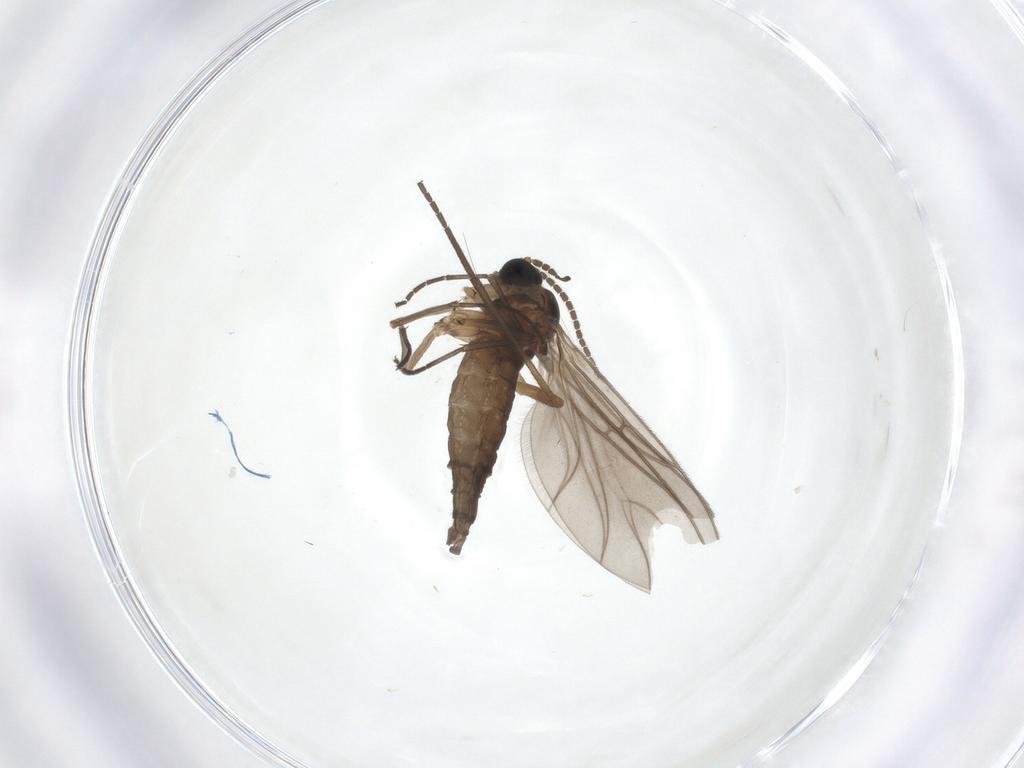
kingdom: Animalia
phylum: Arthropoda
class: Insecta
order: Diptera
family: Sciaridae
